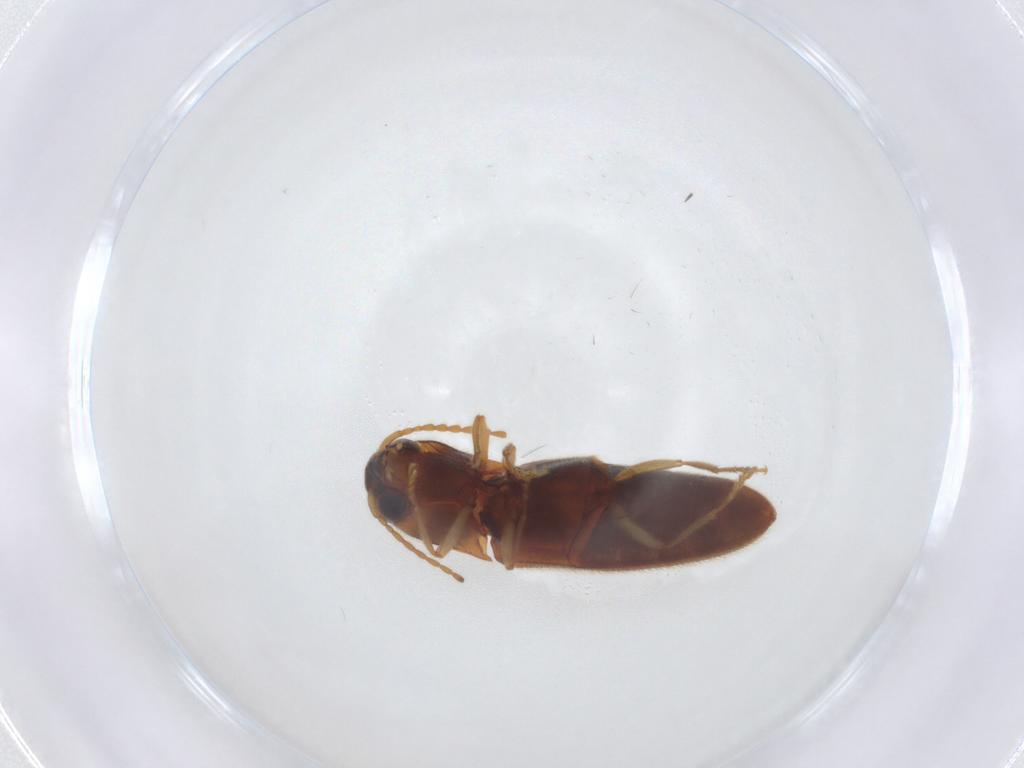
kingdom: Animalia
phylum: Arthropoda
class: Insecta
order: Coleoptera
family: Elateridae
